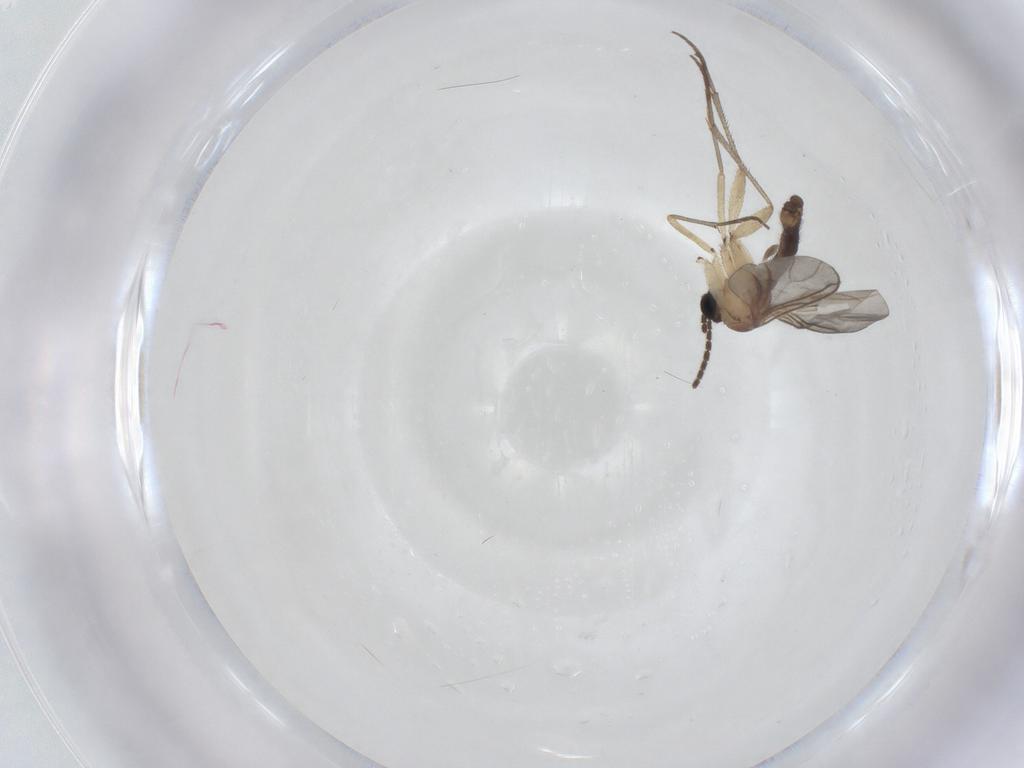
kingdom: Animalia
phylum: Arthropoda
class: Insecta
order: Diptera
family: Sciaridae
